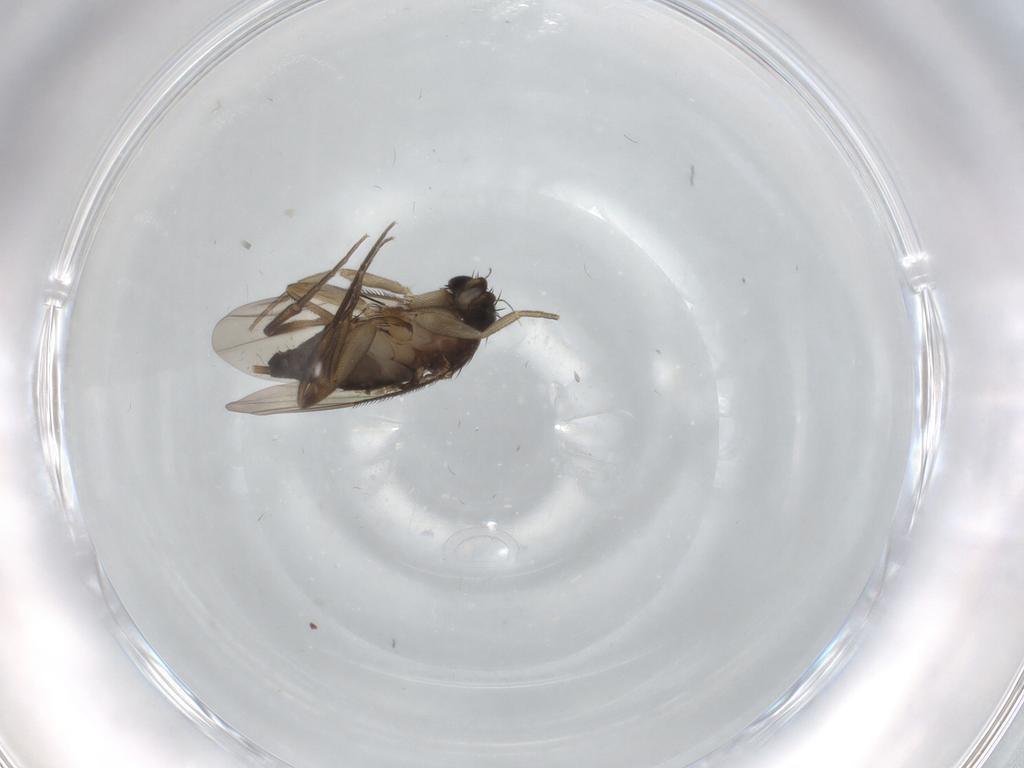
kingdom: Animalia
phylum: Arthropoda
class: Insecta
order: Diptera
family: Phoridae
